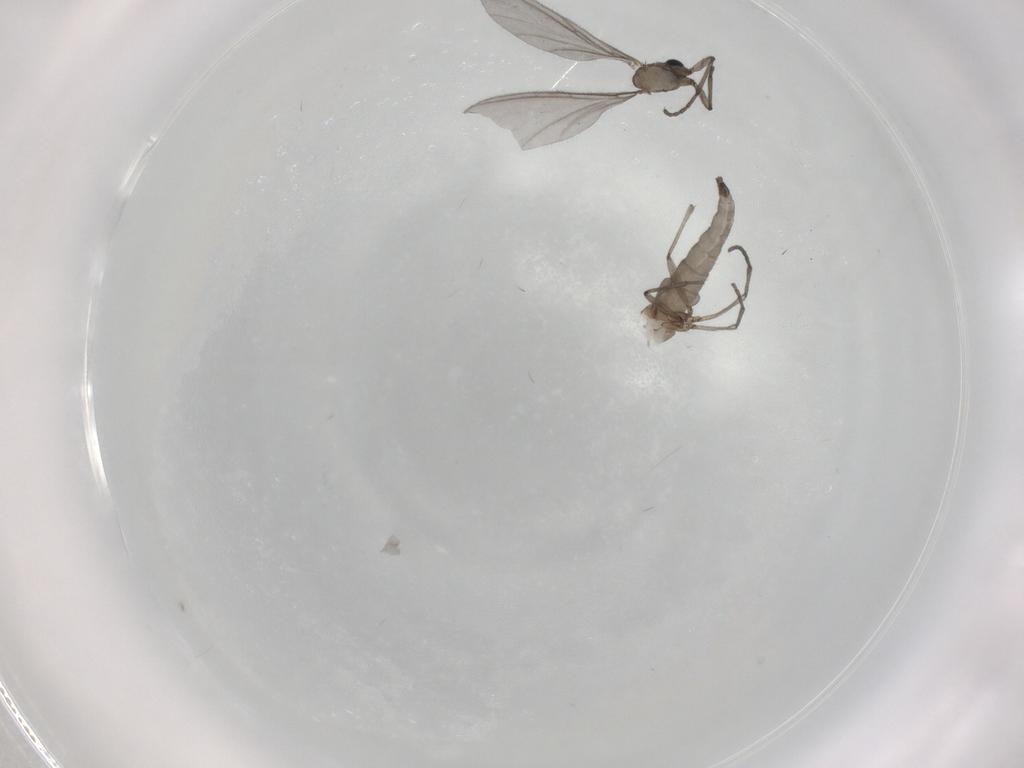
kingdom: Animalia
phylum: Arthropoda
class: Insecta
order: Diptera
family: Sciaridae
